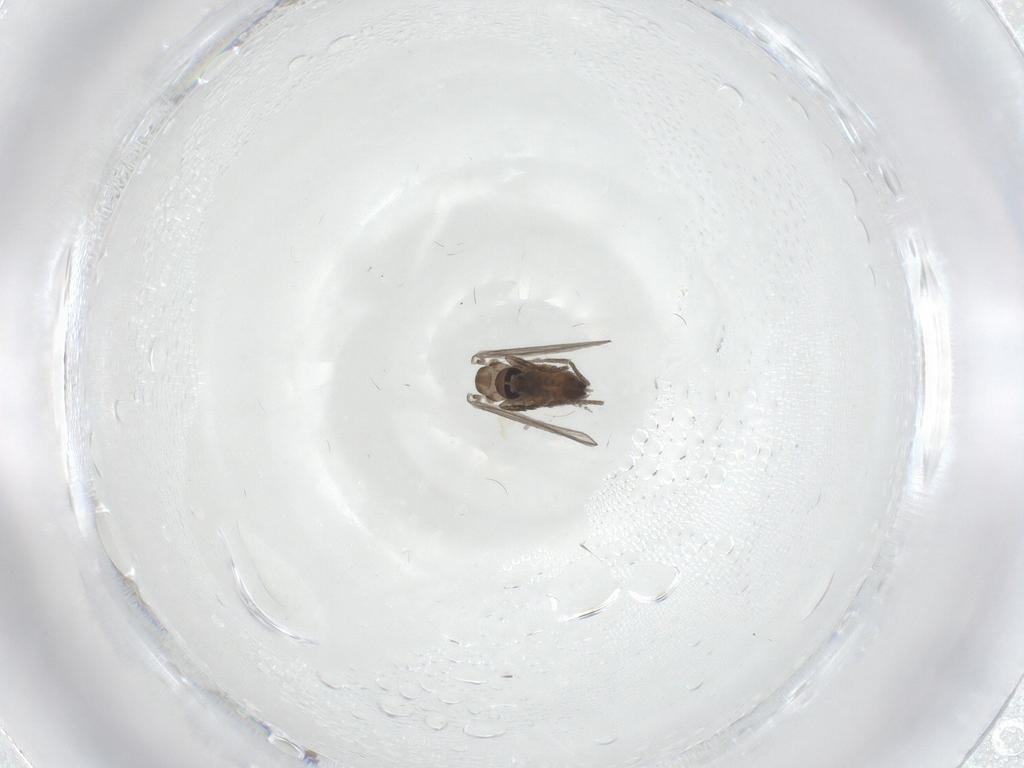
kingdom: Animalia
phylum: Arthropoda
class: Insecta
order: Diptera
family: Psychodidae
